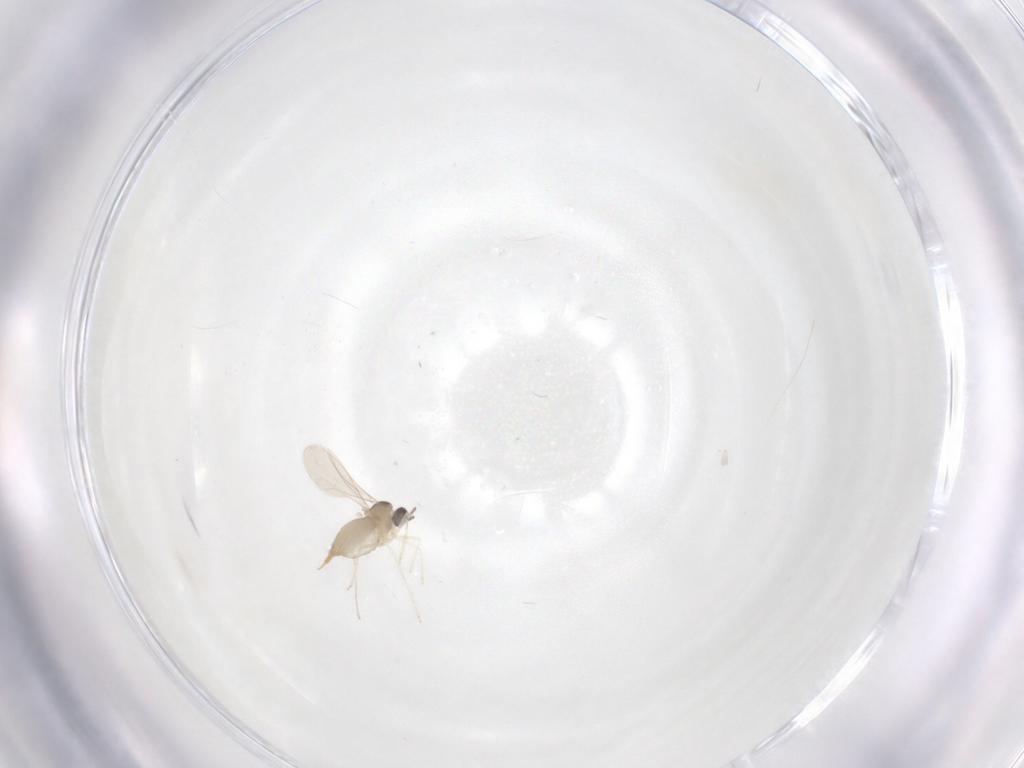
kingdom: Animalia
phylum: Arthropoda
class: Insecta
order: Diptera
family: Cecidomyiidae
